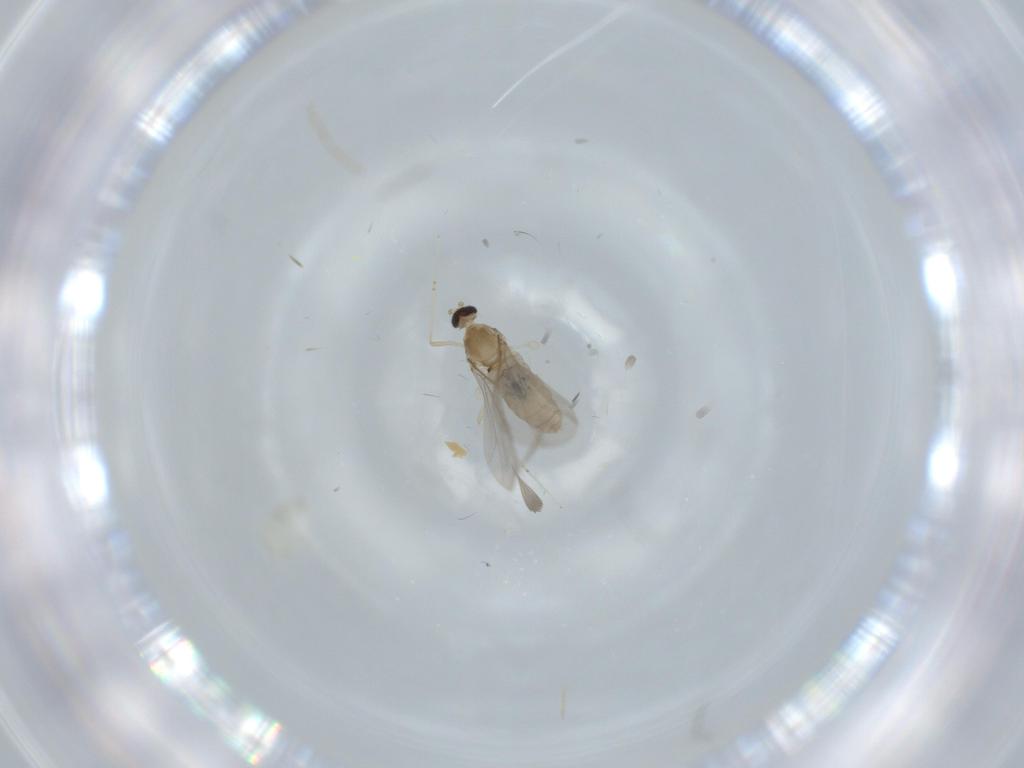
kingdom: Animalia
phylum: Arthropoda
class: Insecta
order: Diptera
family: Cecidomyiidae
